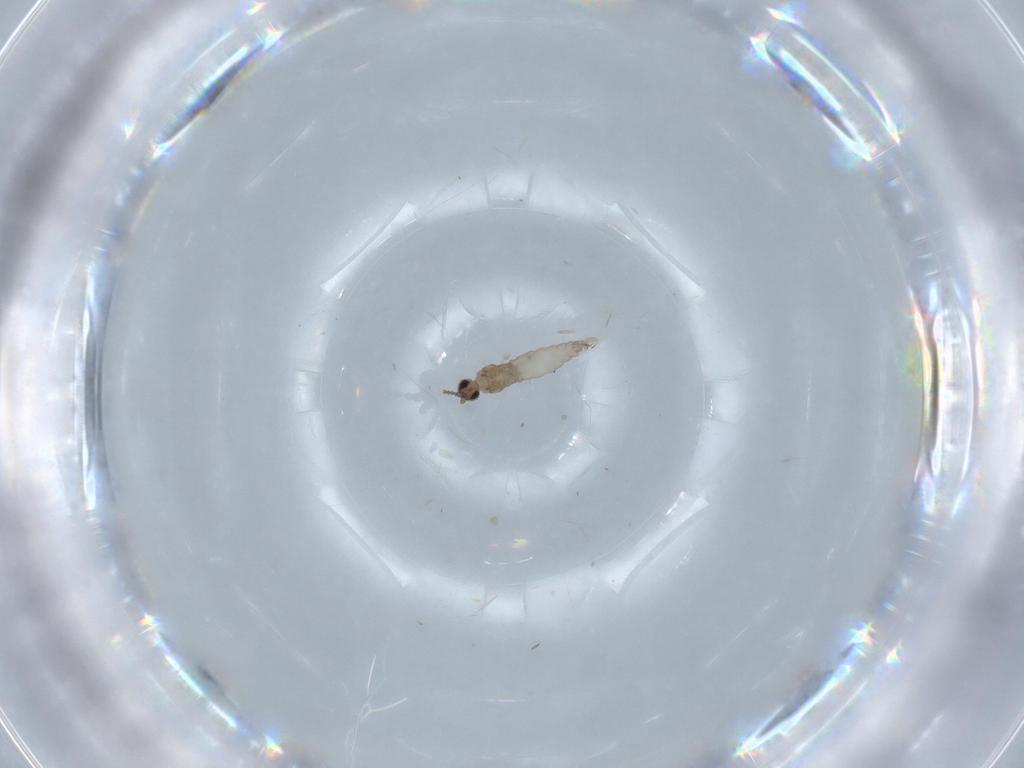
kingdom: Animalia
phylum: Arthropoda
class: Insecta
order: Diptera
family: Cecidomyiidae
